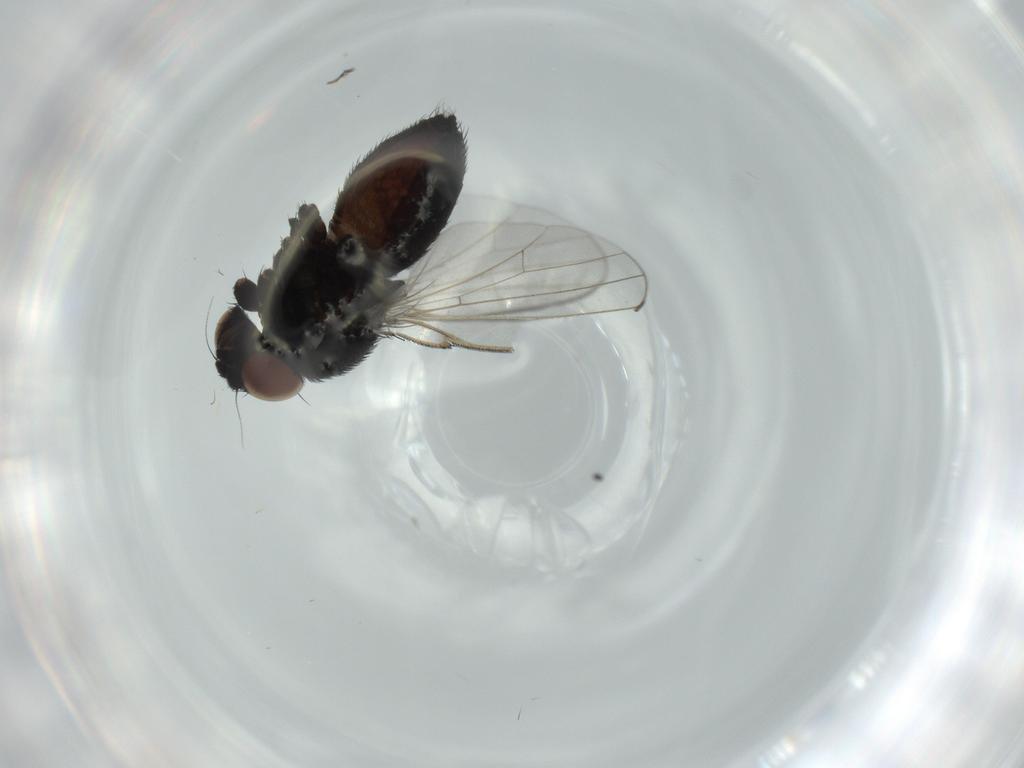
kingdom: Animalia
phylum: Arthropoda
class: Insecta
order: Diptera
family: Milichiidae
